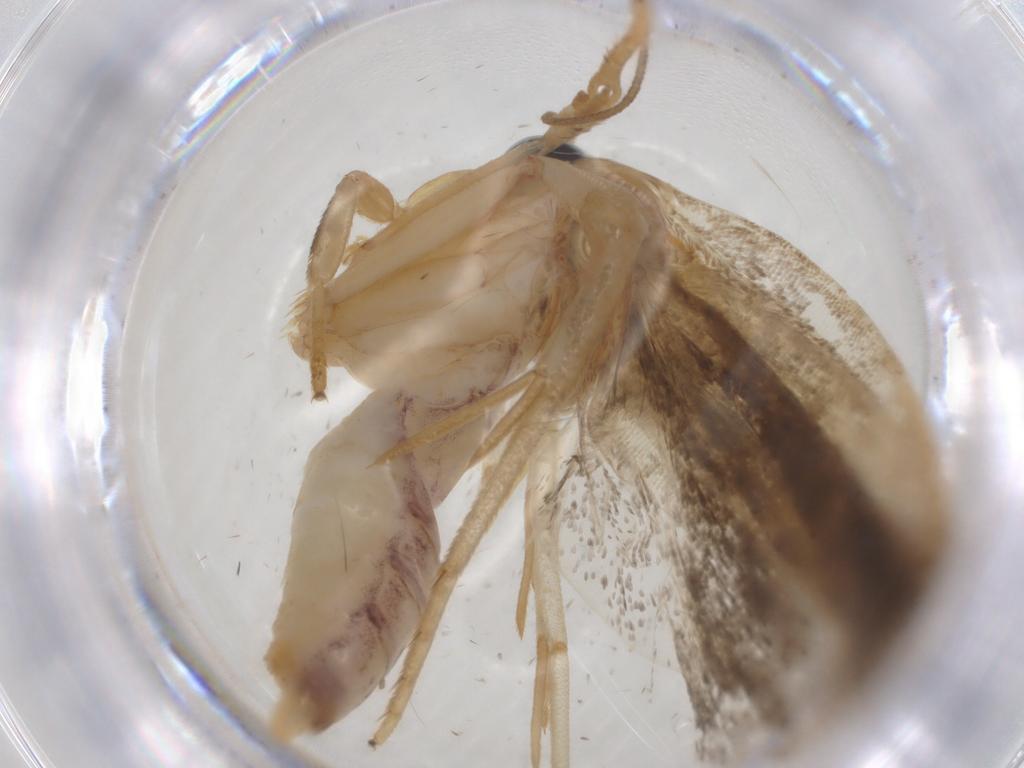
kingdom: Animalia
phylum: Arthropoda
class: Insecta
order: Lepidoptera
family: Depressariidae
